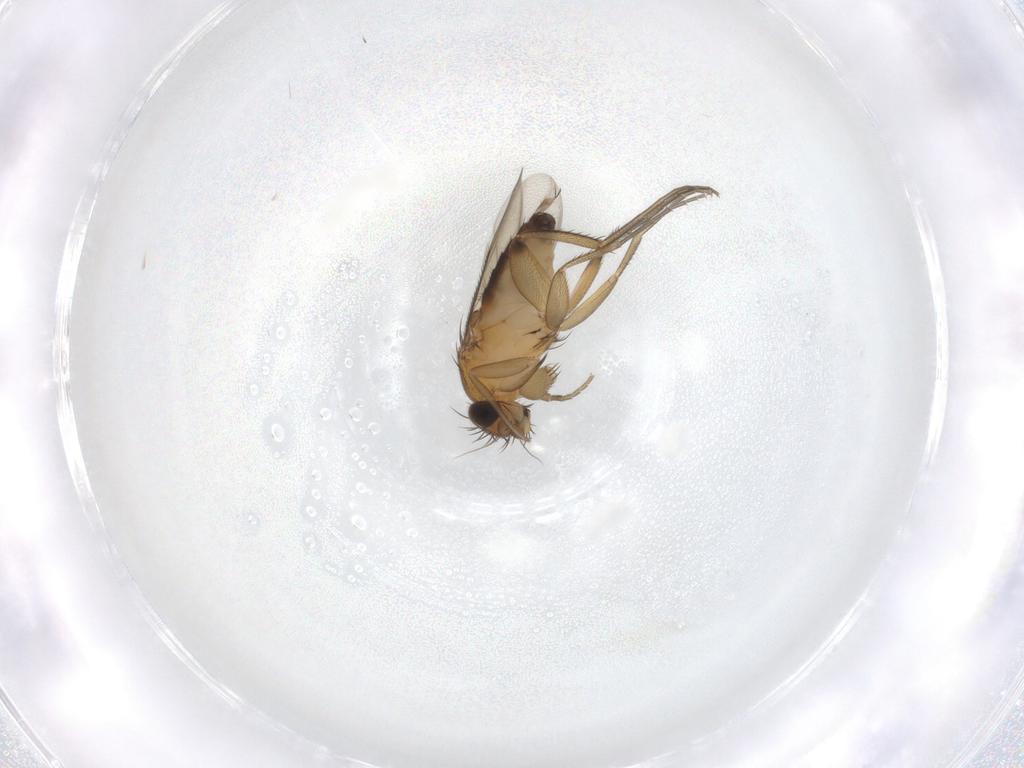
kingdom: Animalia
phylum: Arthropoda
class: Insecta
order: Diptera
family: Phoridae
